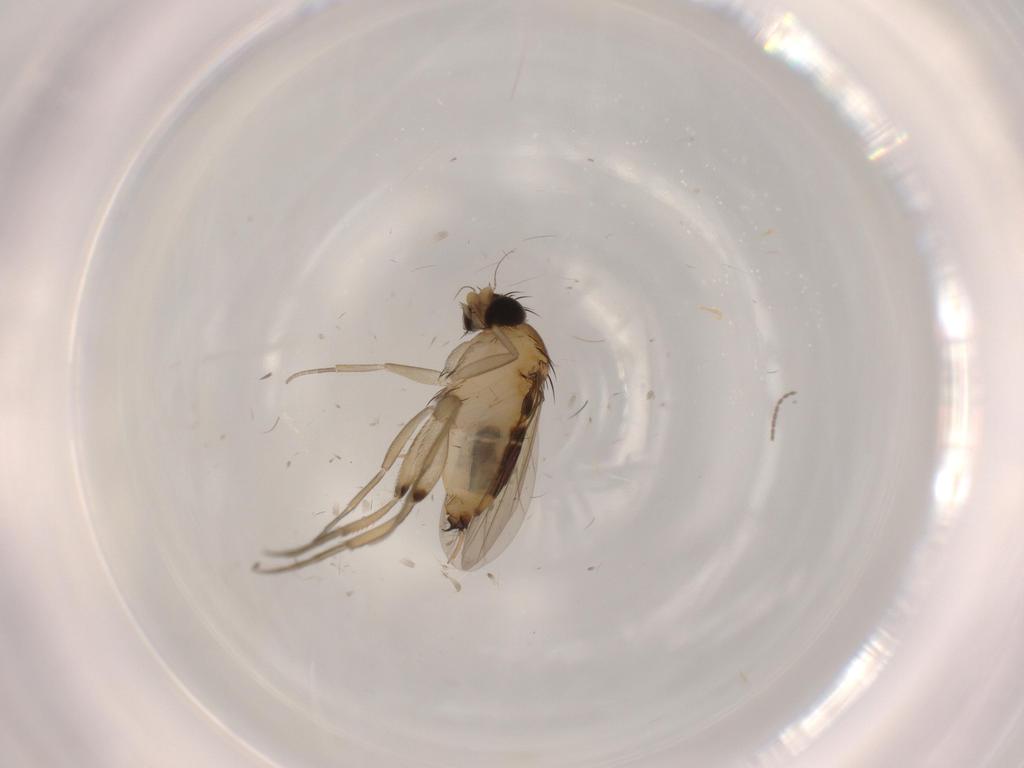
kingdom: Animalia
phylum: Arthropoda
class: Insecta
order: Diptera
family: Phoridae
